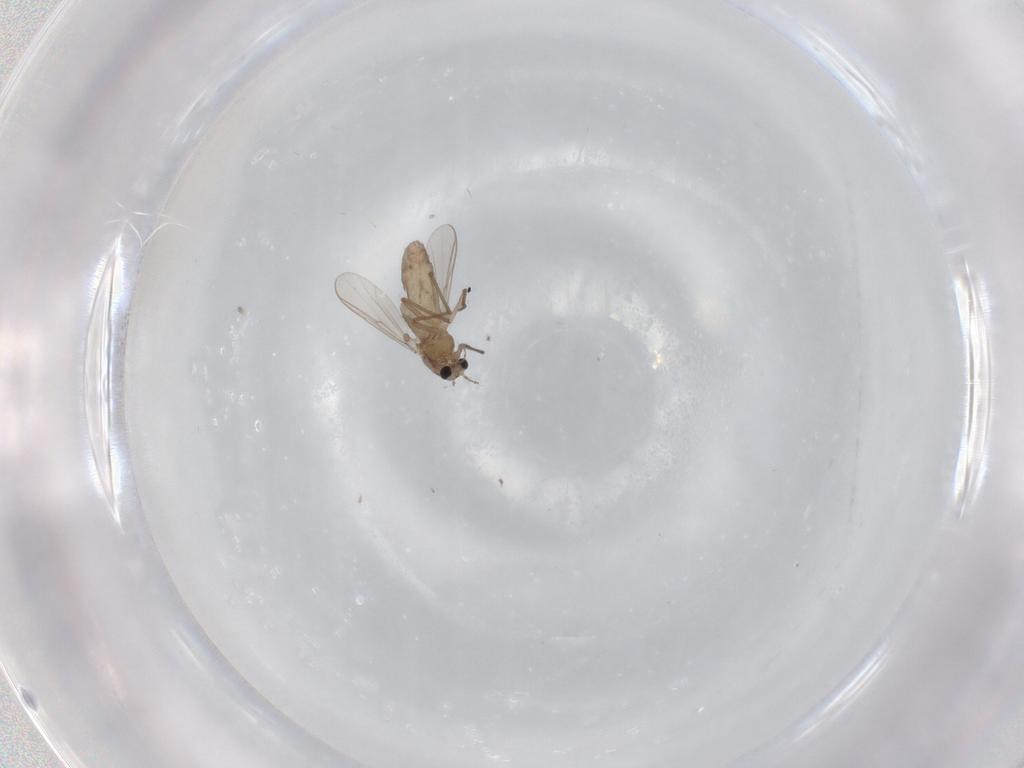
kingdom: Animalia
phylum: Arthropoda
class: Insecta
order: Diptera
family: Chironomidae
